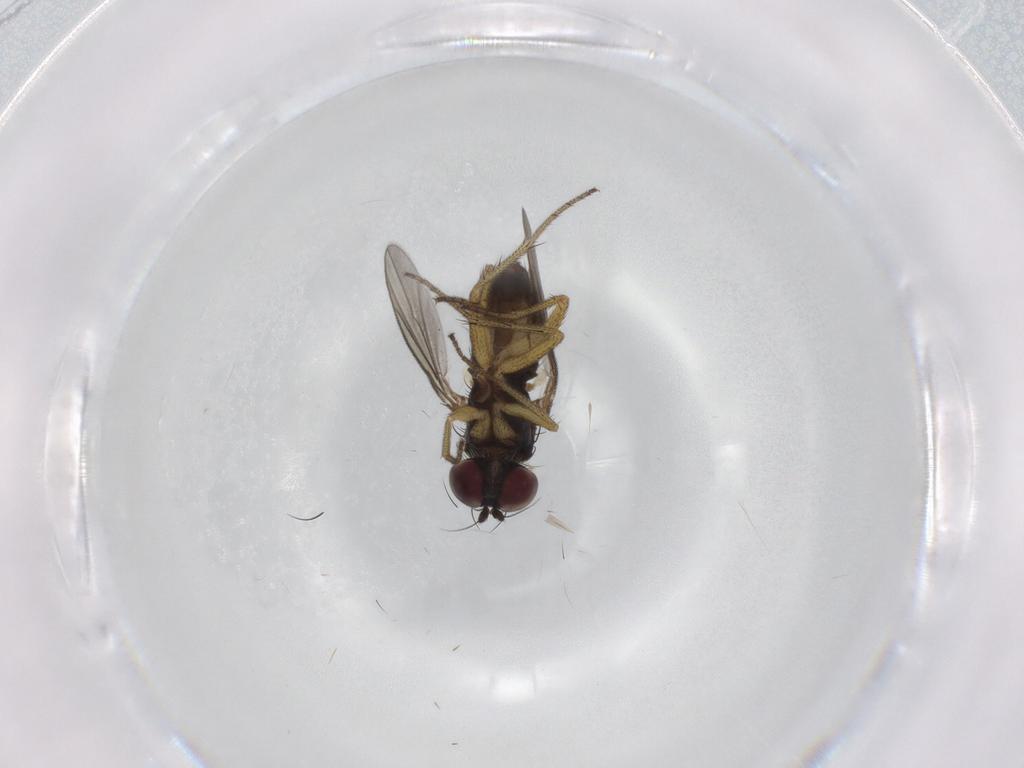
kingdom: Animalia
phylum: Arthropoda
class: Insecta
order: Diptera
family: Dolichopodidae
